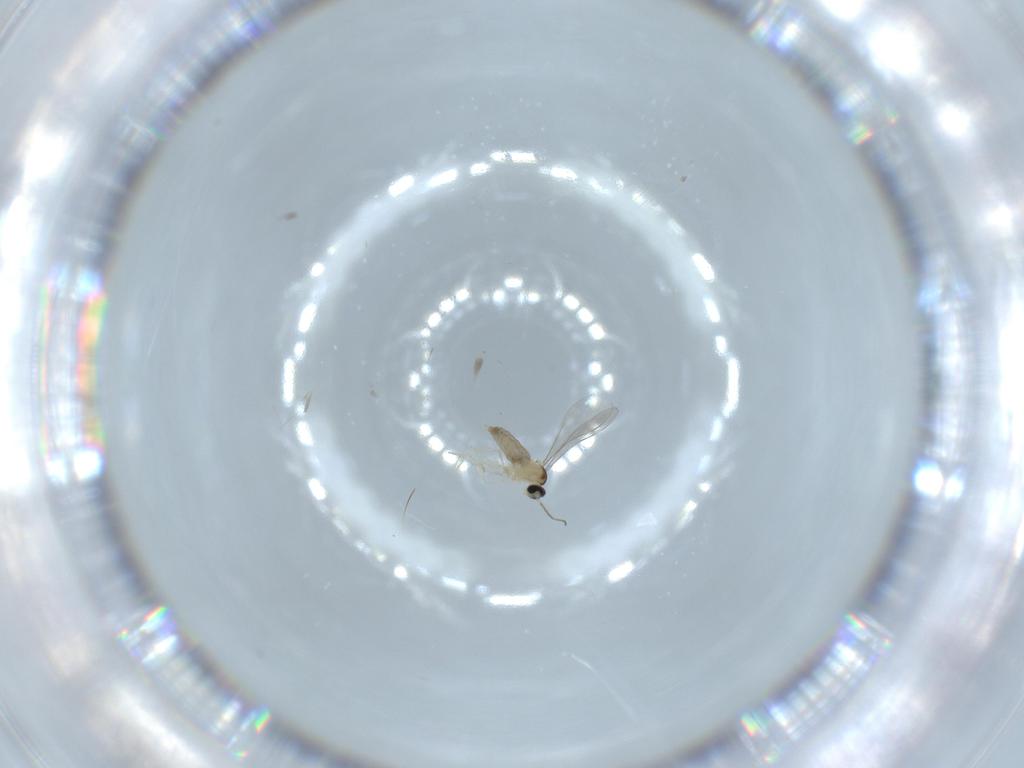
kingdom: Animalia
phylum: Arthropoda
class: Insecta
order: Diptera
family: Ceratopogonidae
